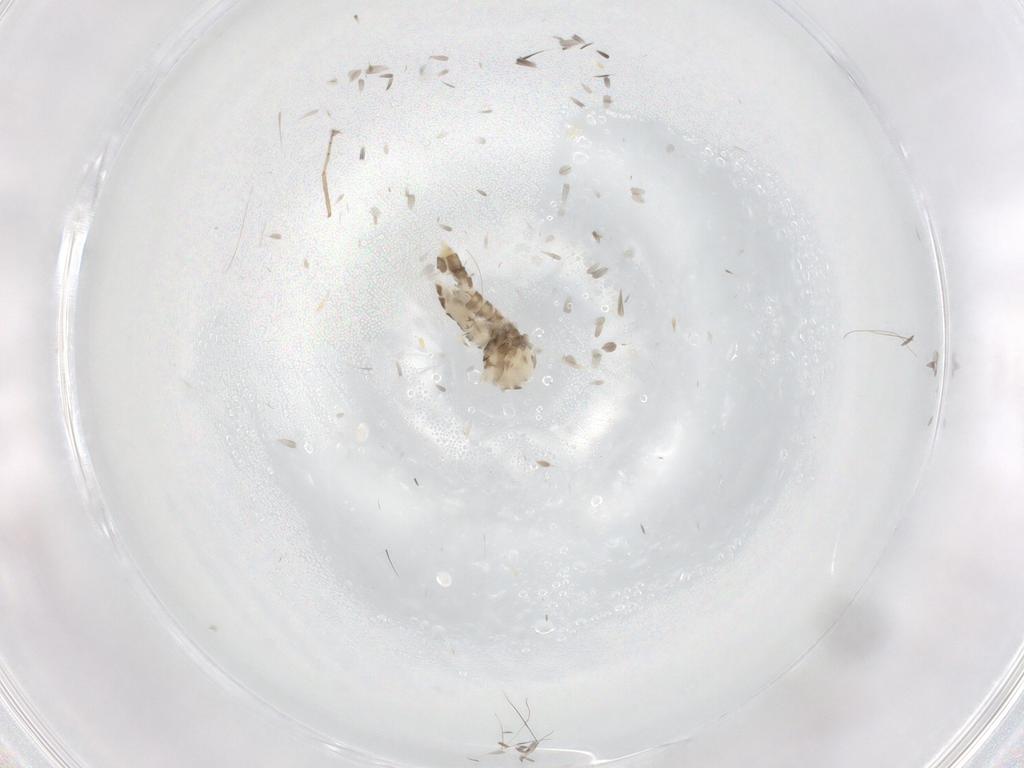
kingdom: Animalia
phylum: Arthropoda
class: Insecta
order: Diptera
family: Cecidomyiidae
